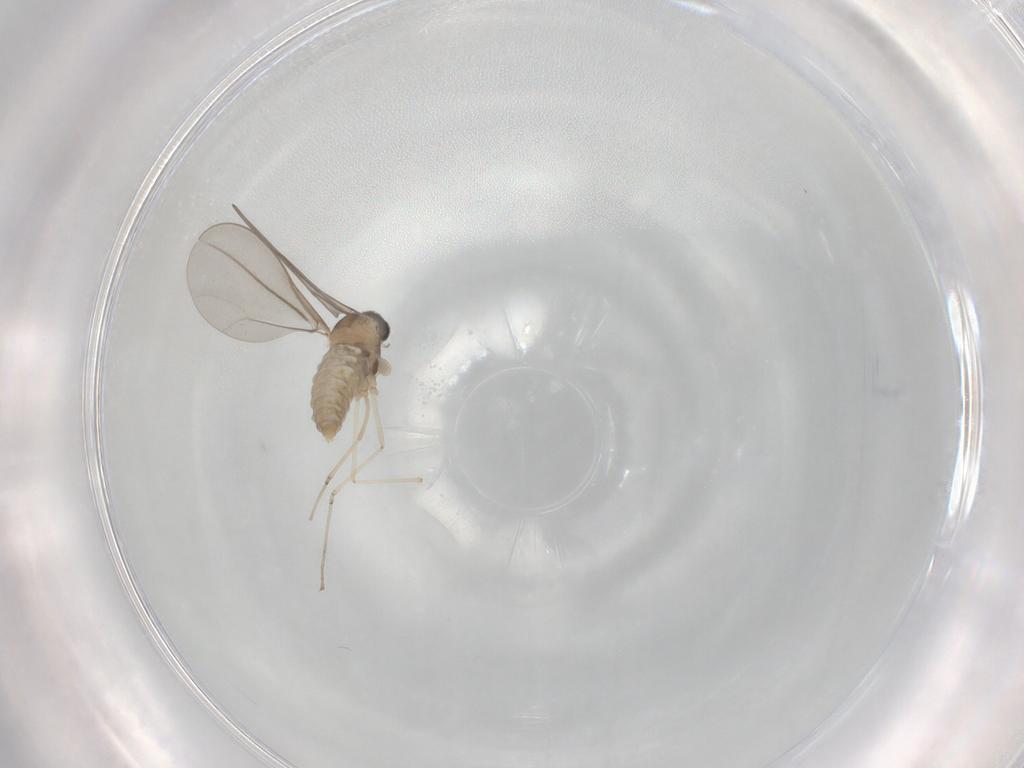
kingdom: Animalia
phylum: Arthropoda
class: Insecta
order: Diptera
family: Cecidomyiidae
